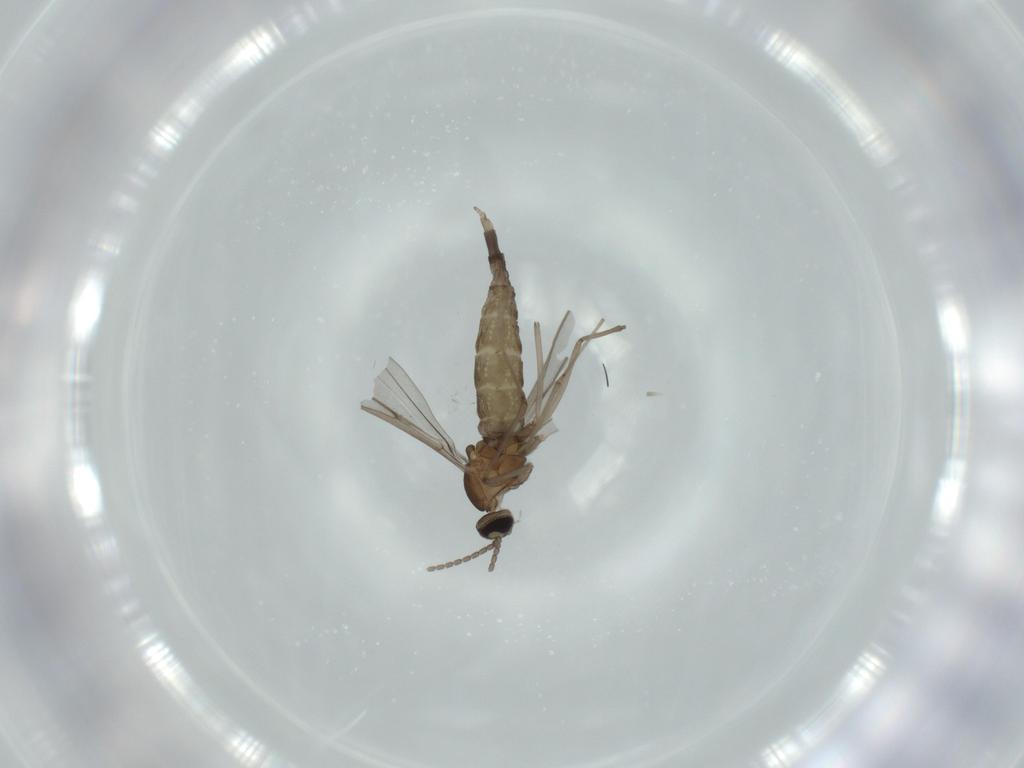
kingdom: Animalia
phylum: Arthropoda
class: Insecta
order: Diptera
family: Cecidomyiidae
